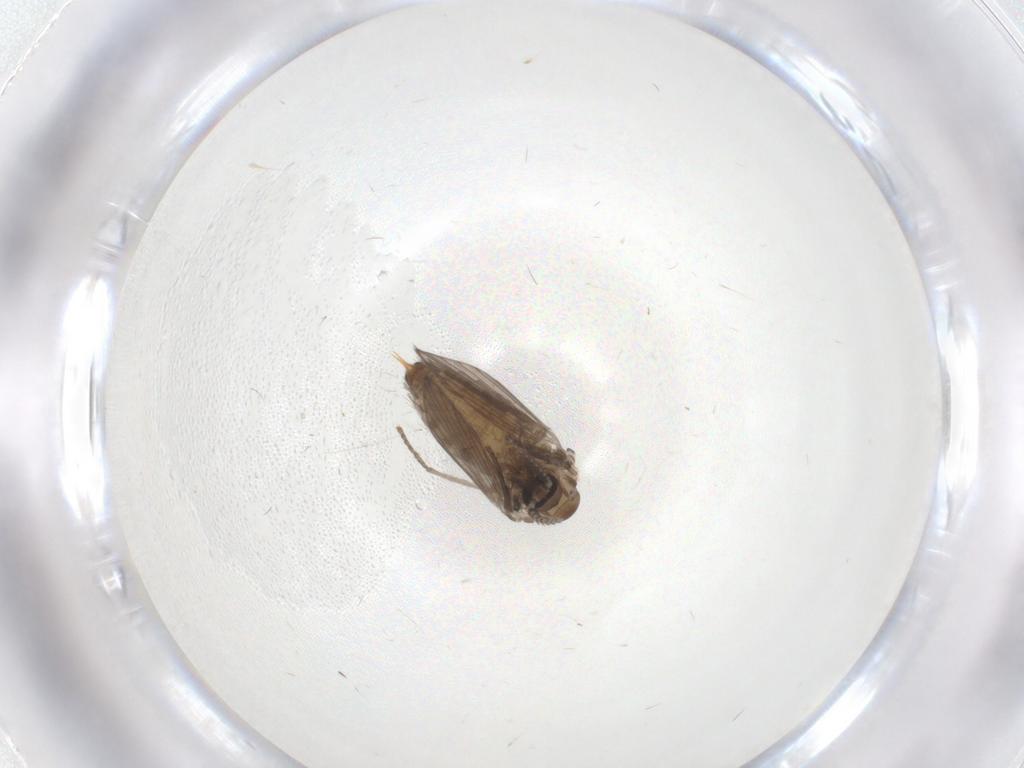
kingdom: Animalia
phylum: Arthropoda
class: Insecta
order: Diptera
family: Psychodidae
